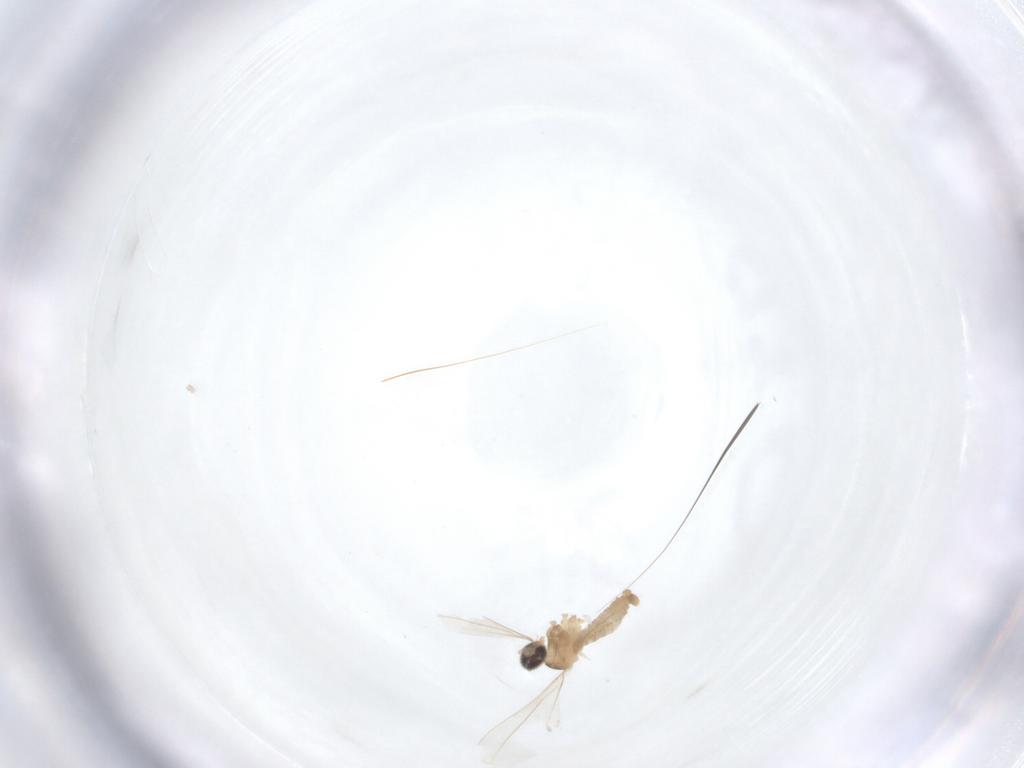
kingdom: Animalia
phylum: Arthropoda
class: Insecta
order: Diptera
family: Cecidomyiidae
